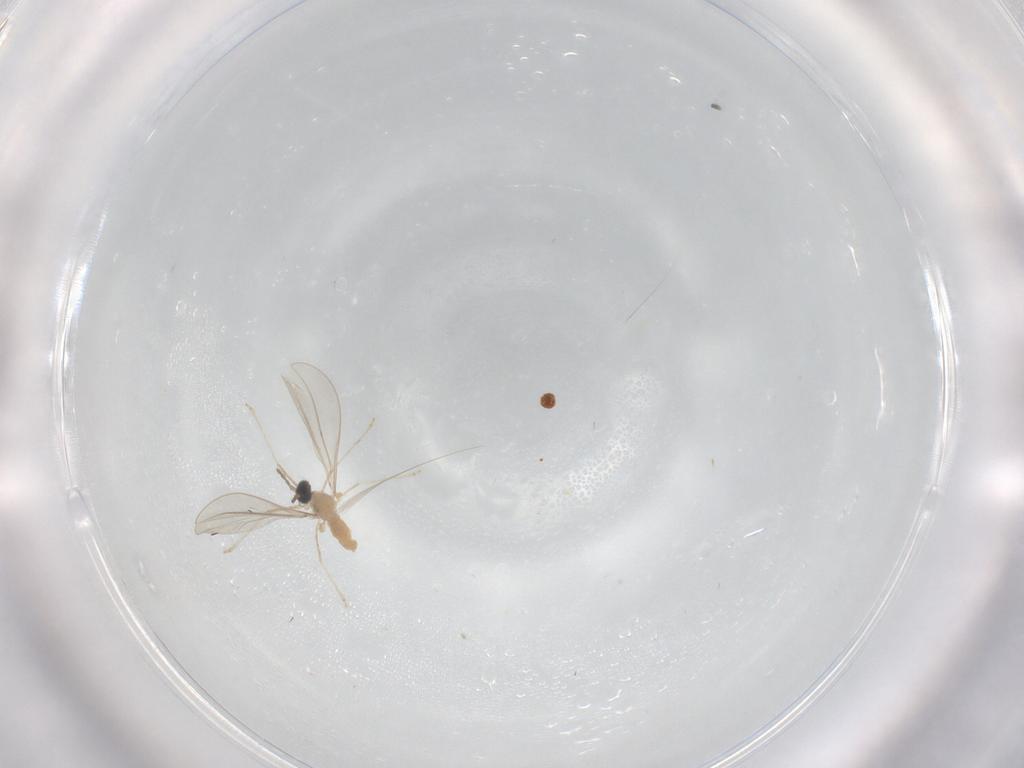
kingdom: Animalia
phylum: Arthropoda
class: Insecta
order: Diptera
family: Sciaridae
